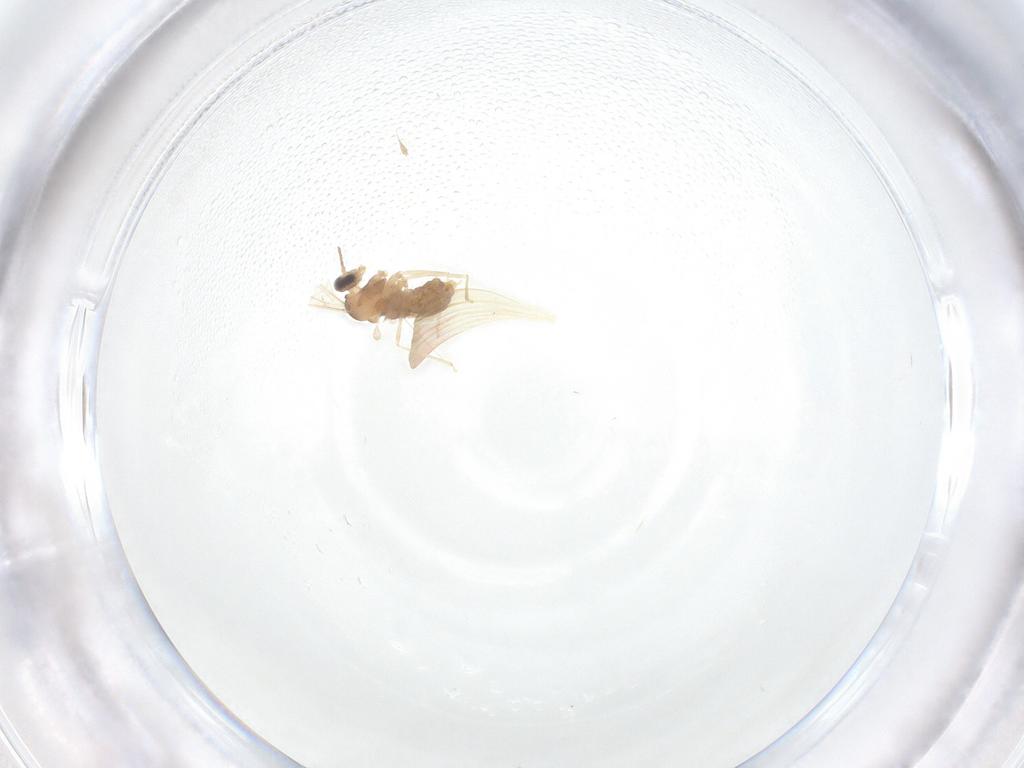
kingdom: Animalia
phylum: Arthropoda
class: Insecta
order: Diptera
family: Cecidomyiidae
